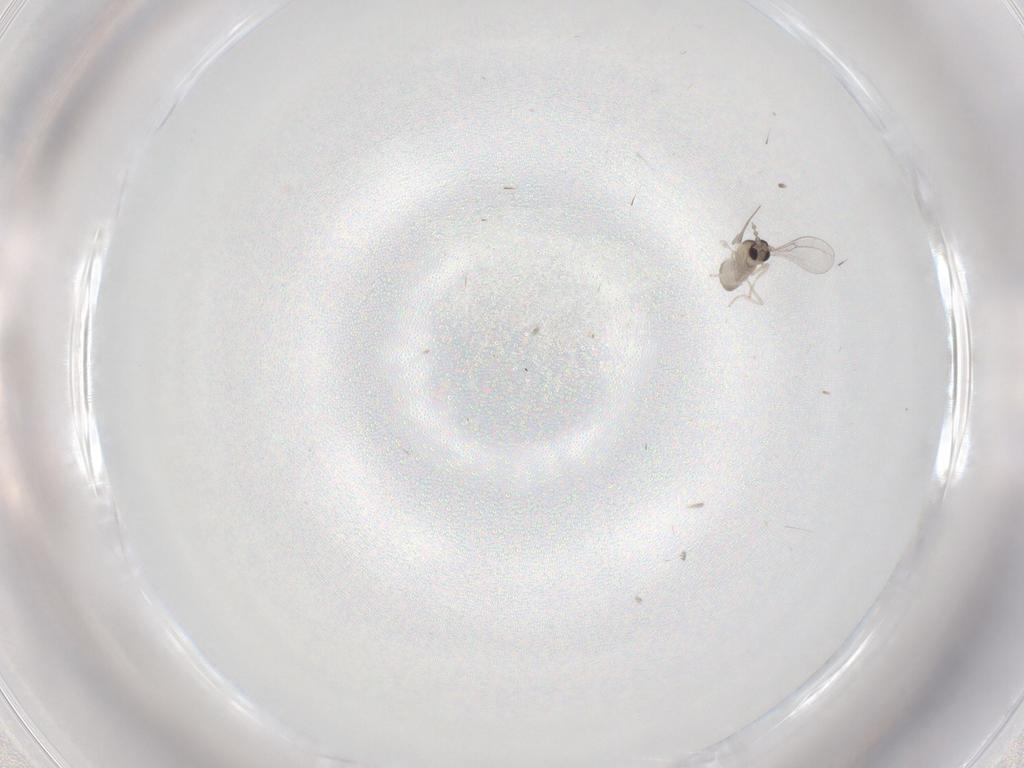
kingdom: Animalia
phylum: Arthropoda
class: Insecta
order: Diptera
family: Cecidomyiidae
